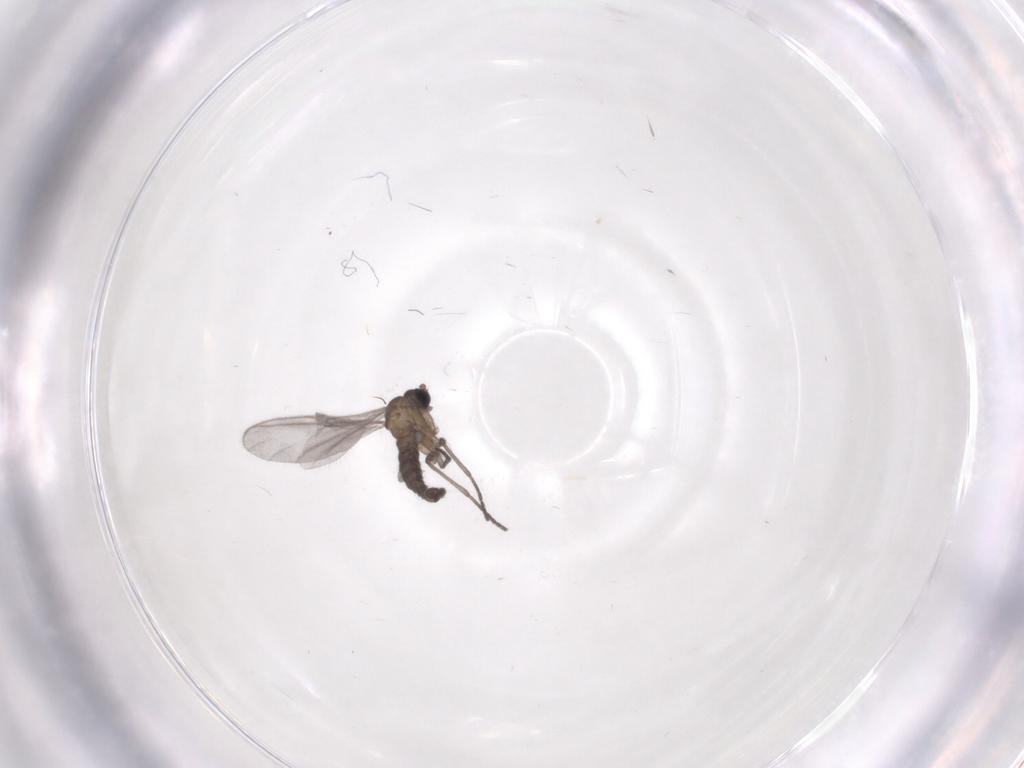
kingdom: Animalia
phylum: Arthropoda
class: Insecta
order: Diptera
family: Sciaridae
